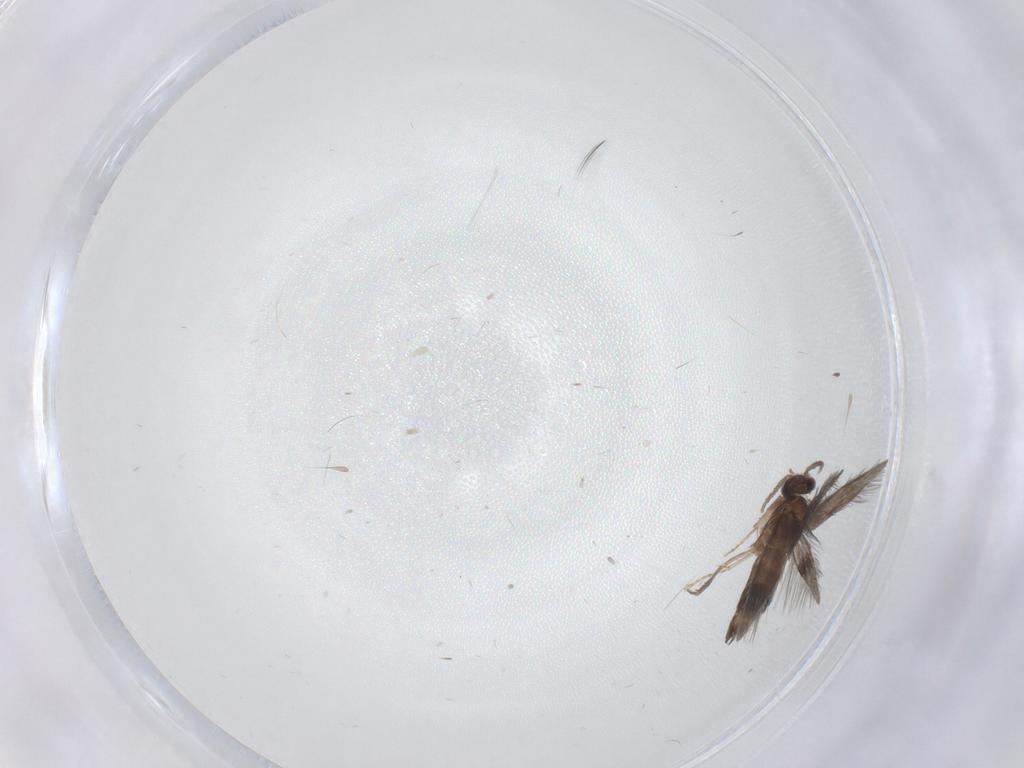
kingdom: Animalia
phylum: Arthropoda
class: Insecta
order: Trichoptera
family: Hydroptilidae
